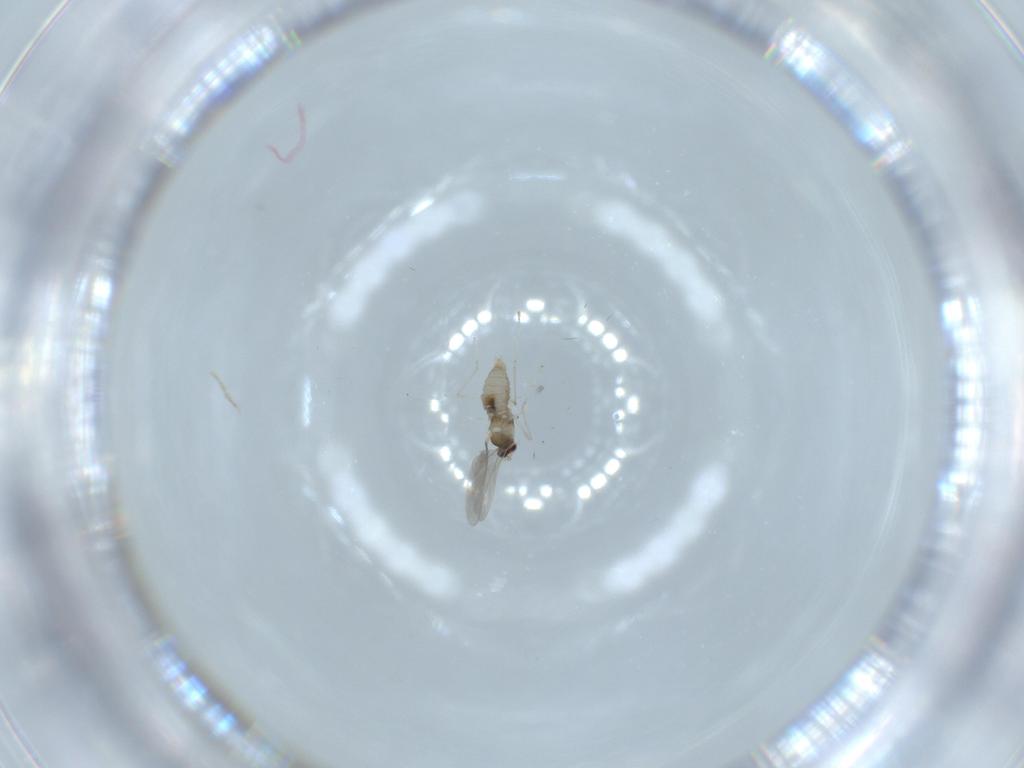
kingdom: Animalia
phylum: Arthropoda
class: Insecta
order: Diptera
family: Cecidomyiidae
